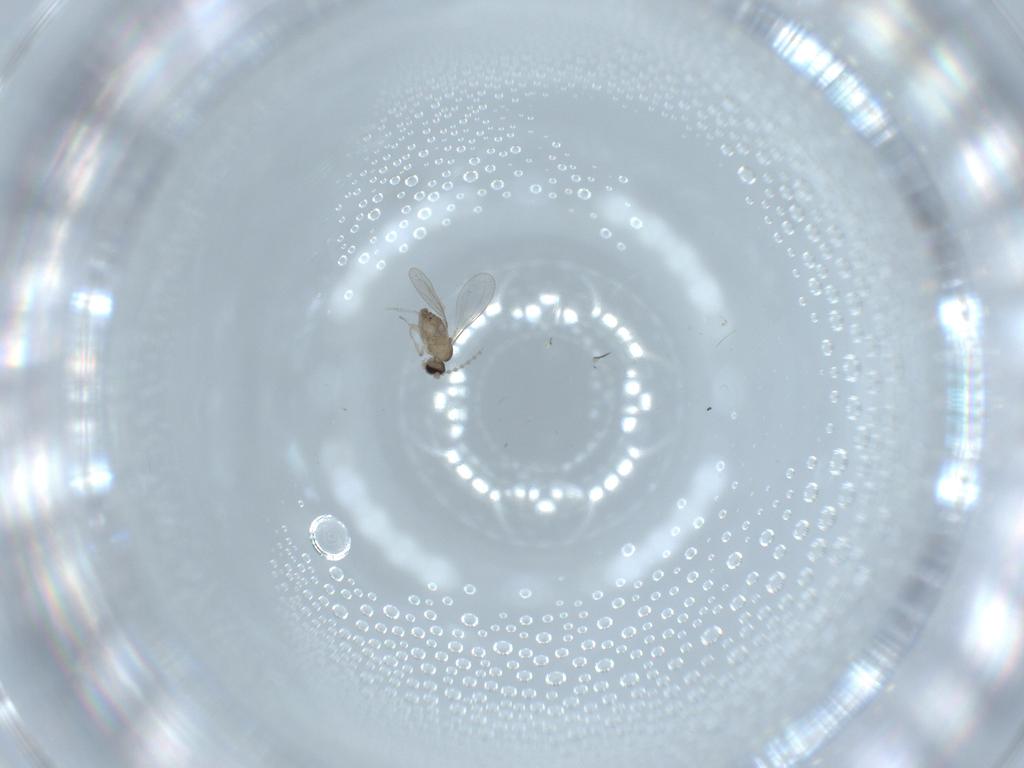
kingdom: Animalia
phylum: Arthropoda
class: Insecta
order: Diptera
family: Cecidomyiidae
